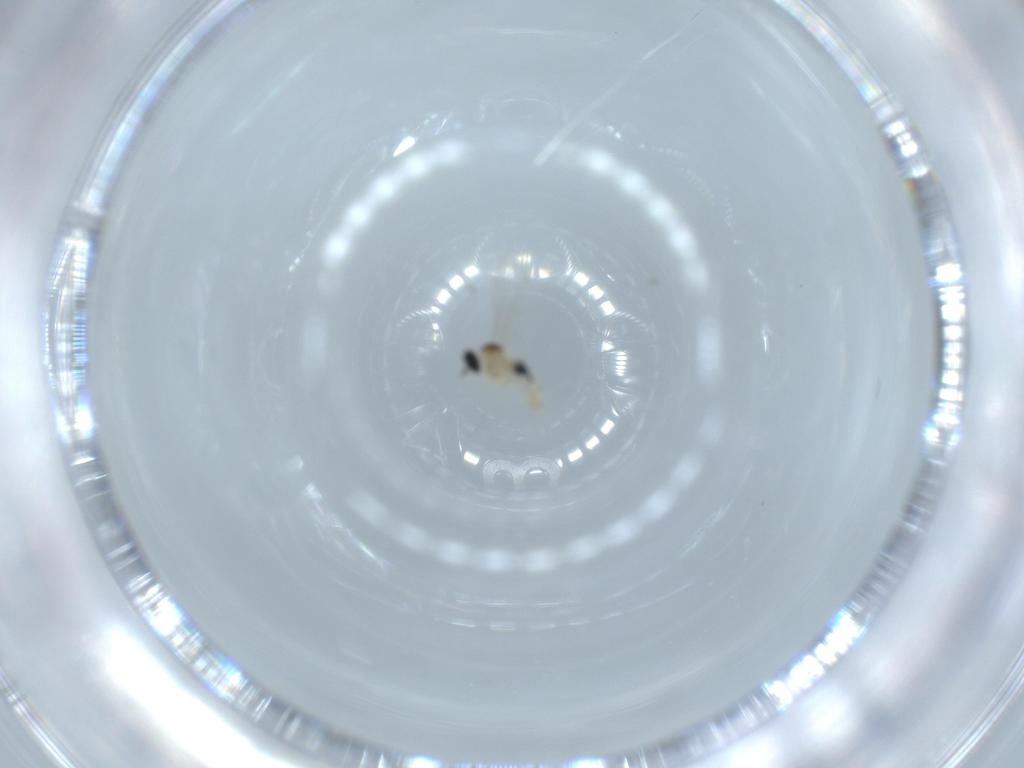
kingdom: Animalia
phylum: Arthropoda
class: Insecta
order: Diptera
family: Cecidomyiidae
